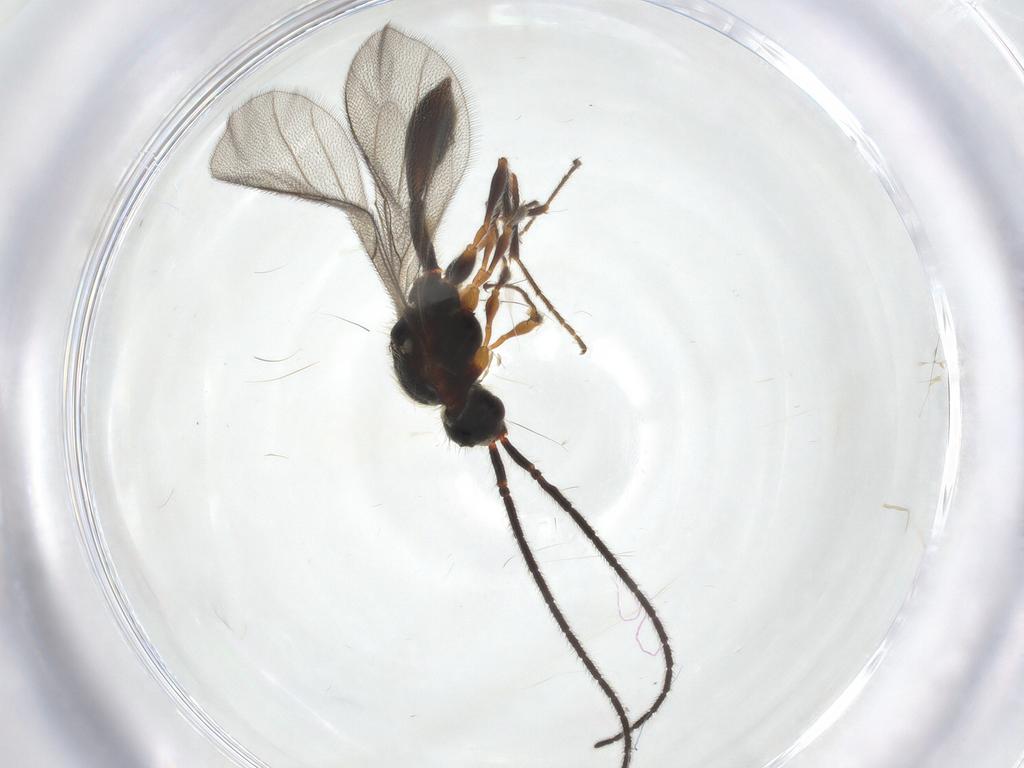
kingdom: Animalia
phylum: Arthropoda
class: Insecta
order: Hymenoptera
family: Diapriidae
